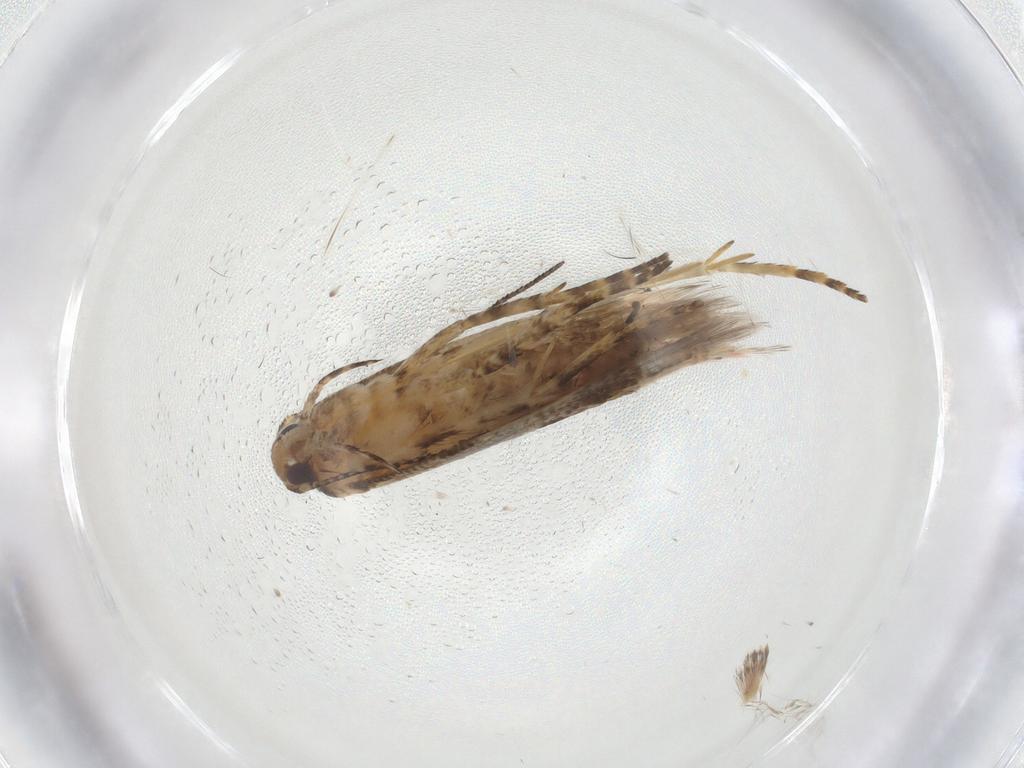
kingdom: Animalia
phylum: Arthropoda
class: Insecta
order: Lepidoptera
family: Gelechiidae
